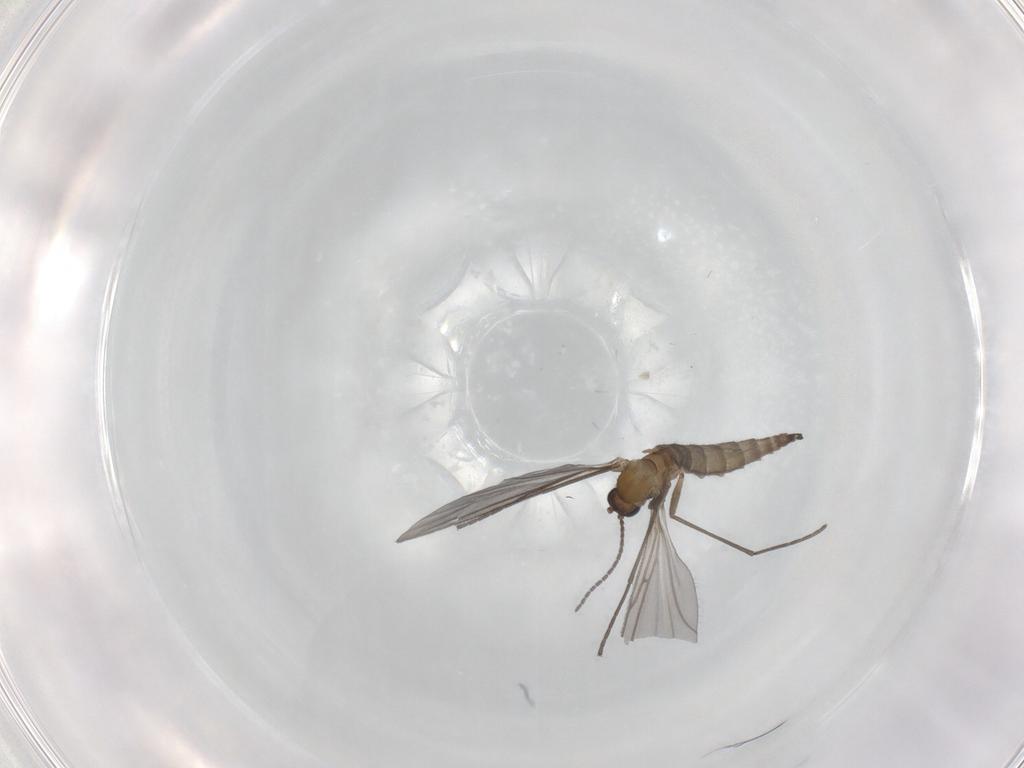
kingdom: Animalia
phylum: Arthropoda
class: Insecta
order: Diptera
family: Sciaridae
